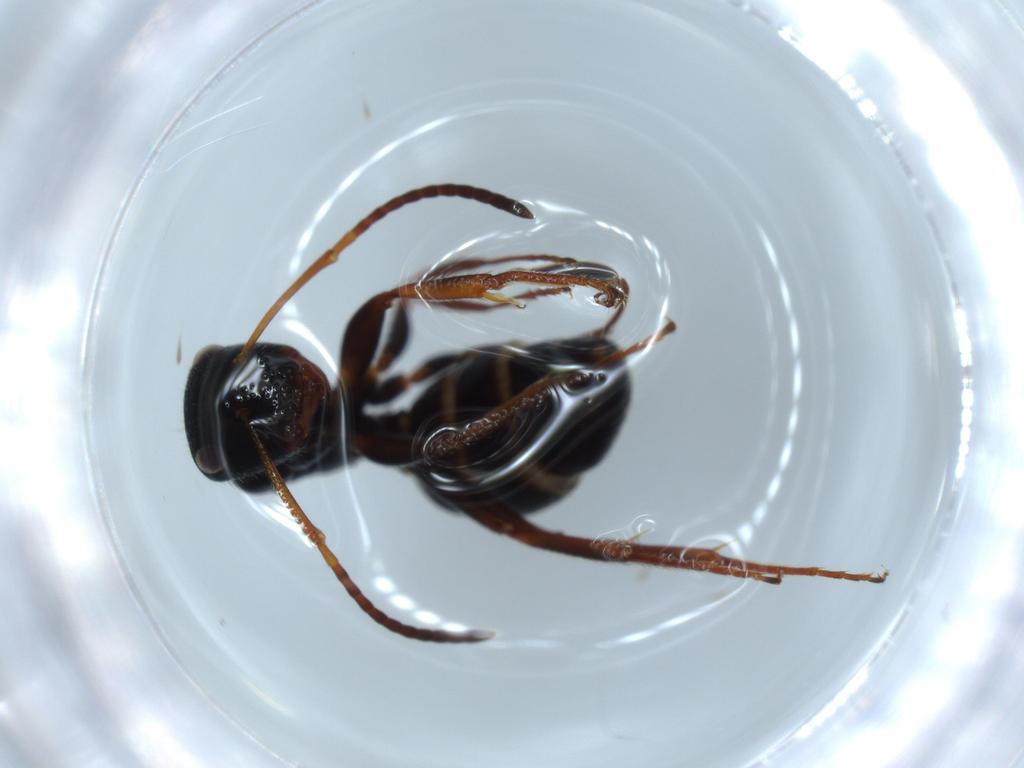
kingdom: Animalia
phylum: Arthropoda
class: Insecta
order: Hymenoptera
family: Formicidae
